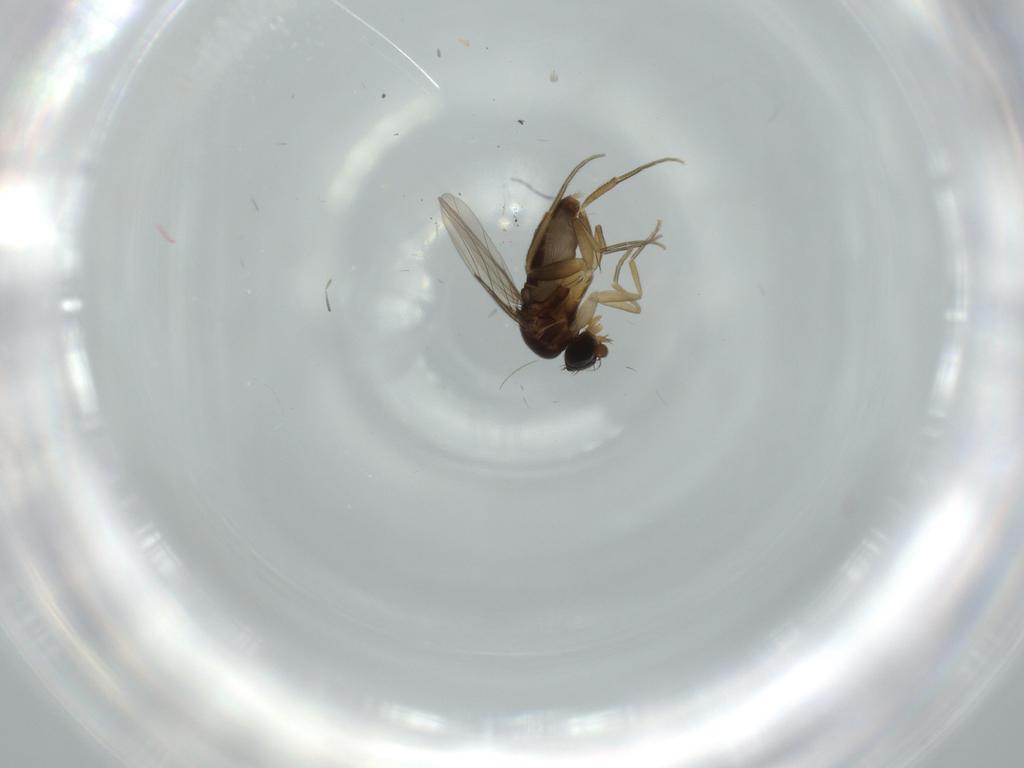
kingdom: Animalia
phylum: Arthropoda
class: Insecta
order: Diptera
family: Phoridae
